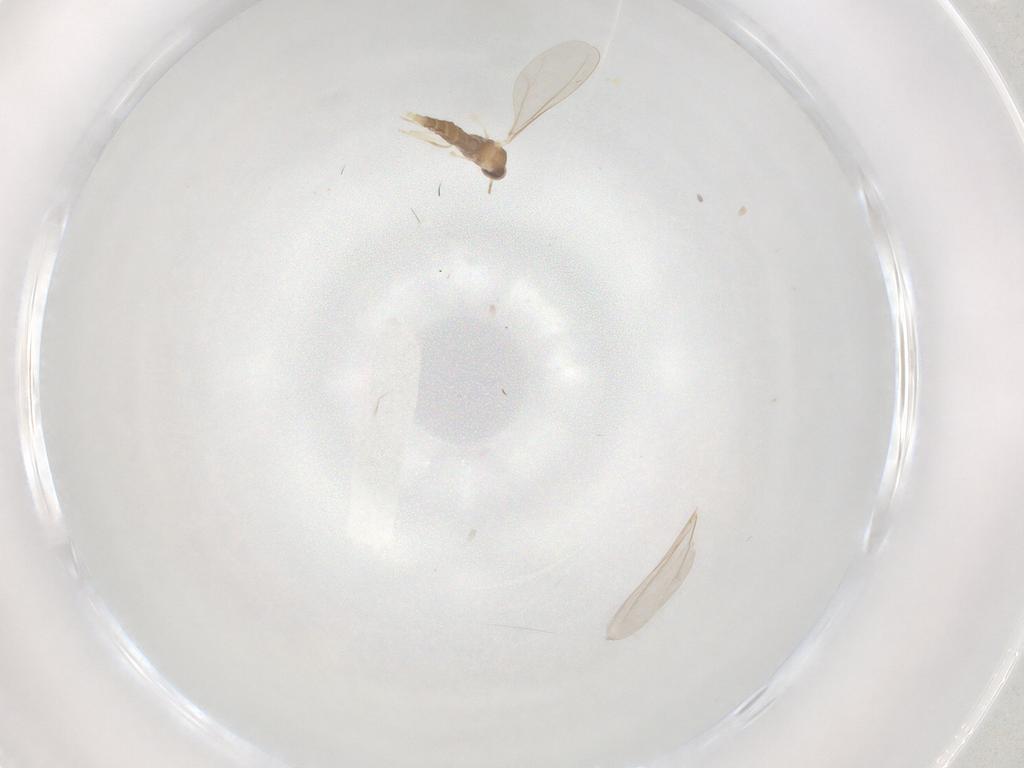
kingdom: Animalia
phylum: Arthropoda
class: Insecta
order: Diptera
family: Cecidomyiidae
